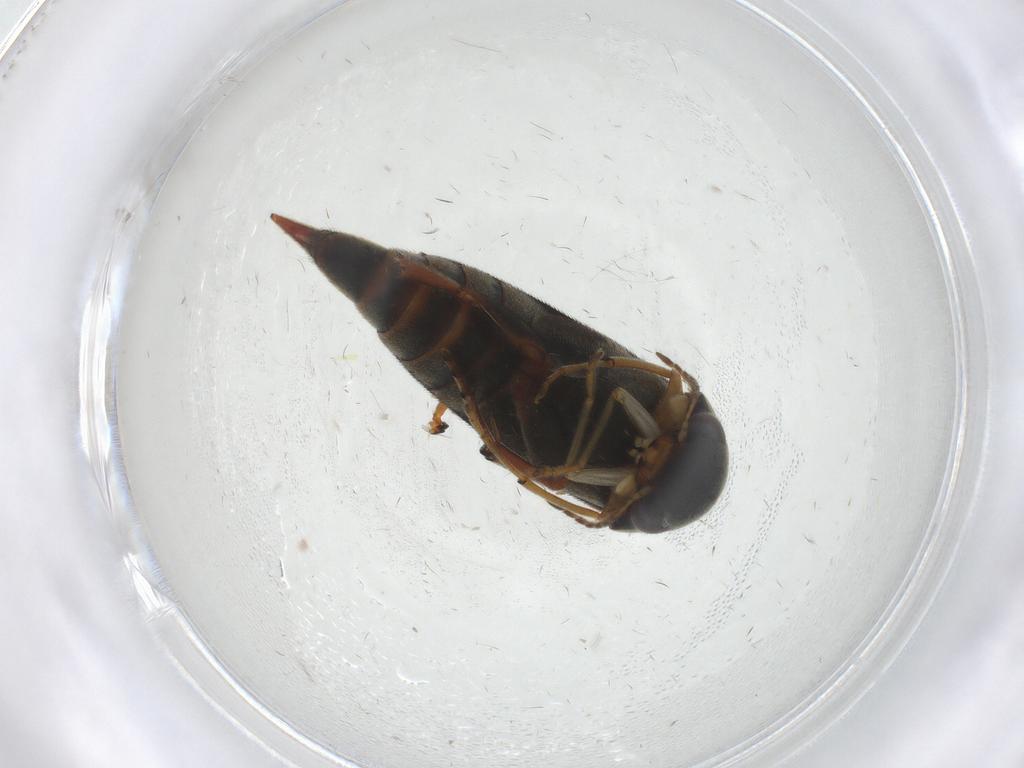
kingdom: Animalia
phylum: Arthropoda
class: Insecta
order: Coleoptera
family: Mordellidae
